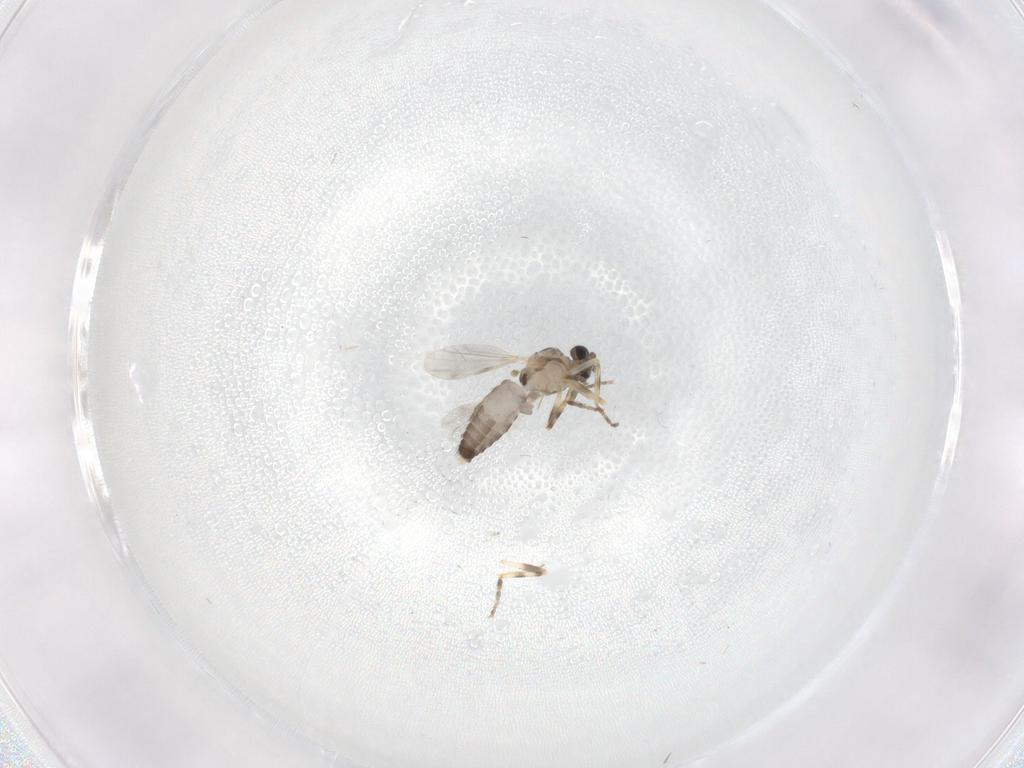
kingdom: Animalia
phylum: Arthropoda
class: Insecta
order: Diptera
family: Ceratopogonidae
